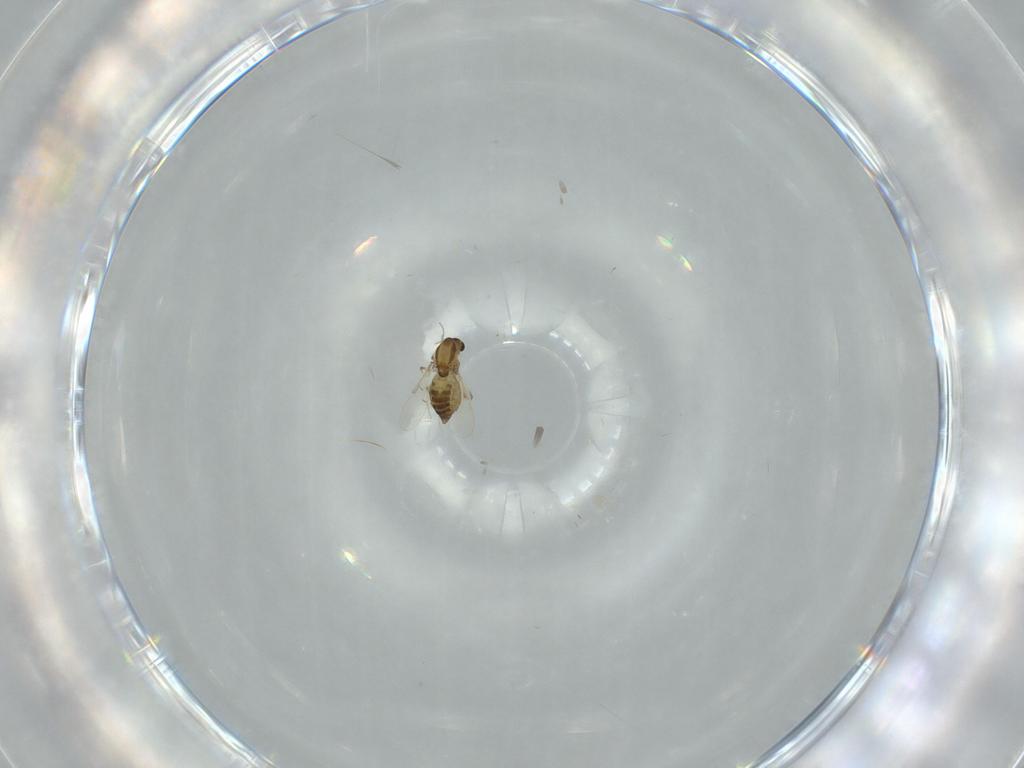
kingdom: Animalia
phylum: Arthropoda
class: Insecta
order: Diptera
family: Chironomidae
